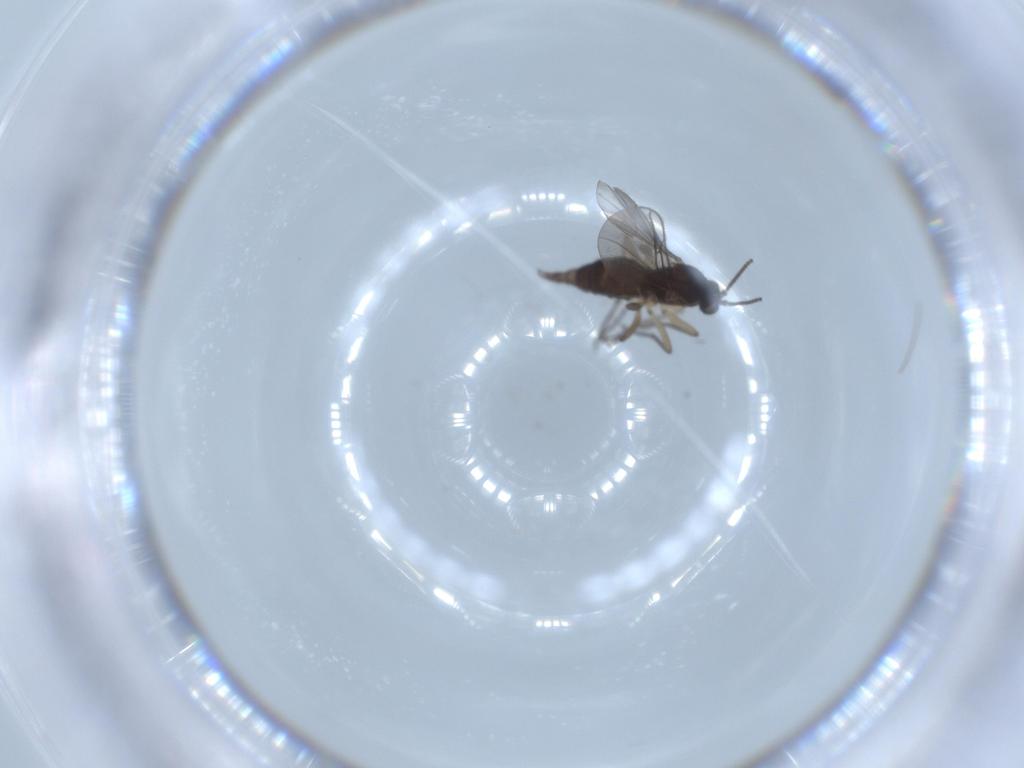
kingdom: Animalia
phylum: Arthropoda
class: Insecta
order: Diptera
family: Sciaridae
